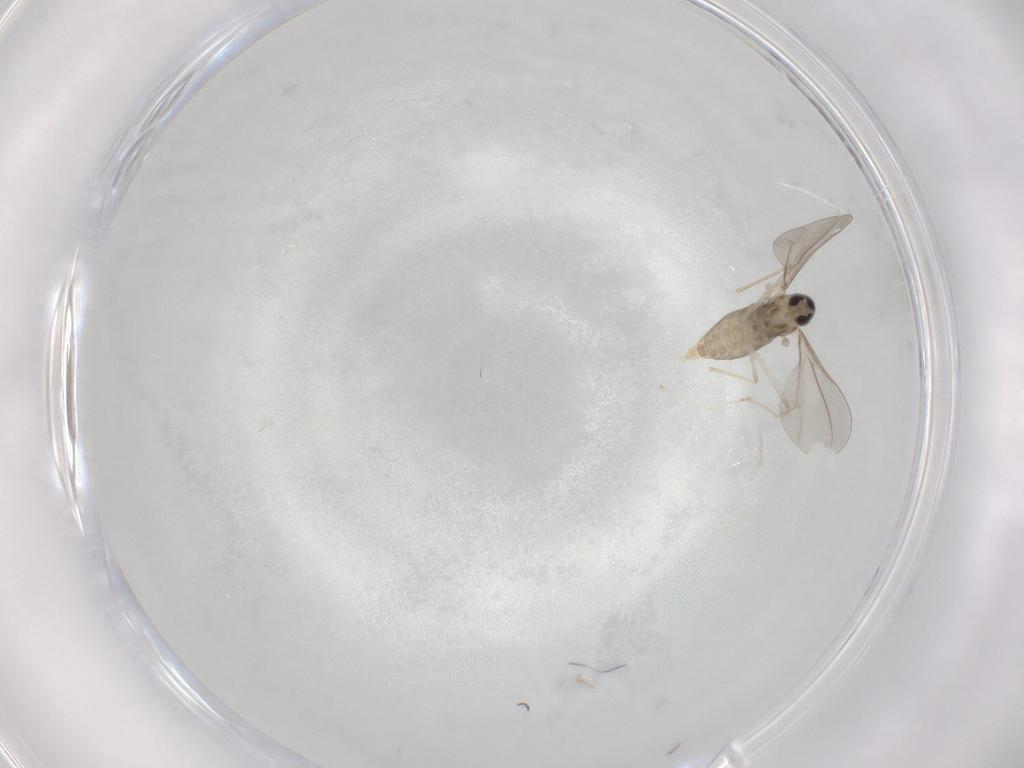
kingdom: Animalia
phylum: Arthropoda
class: Insecta
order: Diptera
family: Cecidomyiidae
